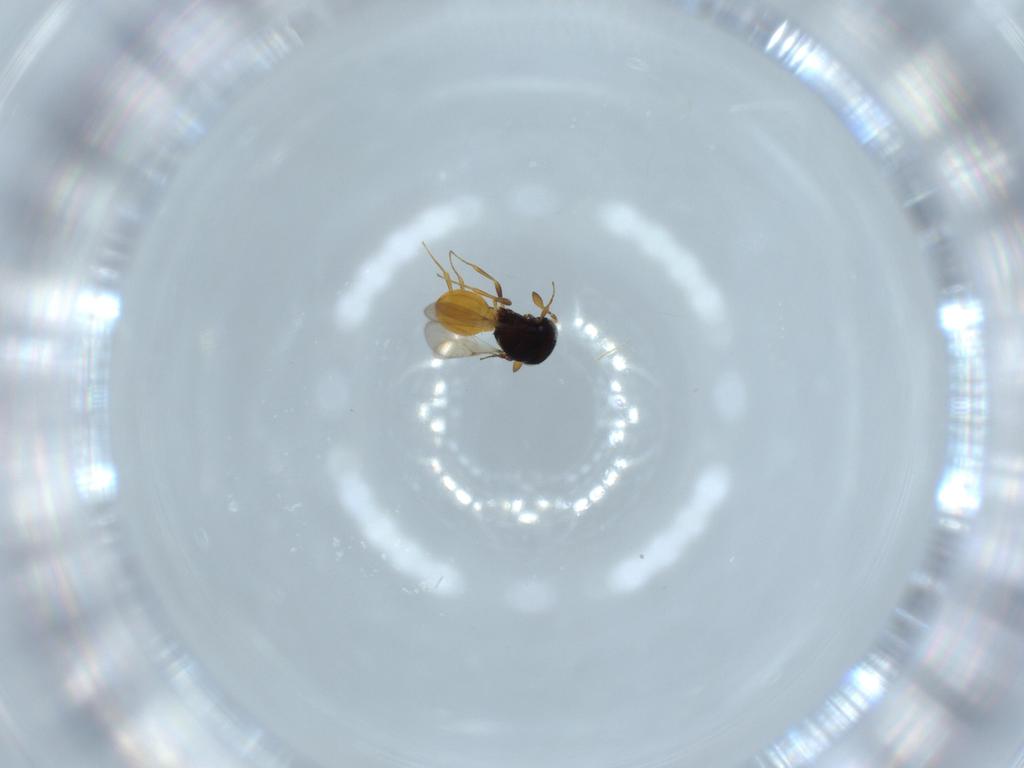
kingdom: Animalia
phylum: Arthropoda
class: Insecta
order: Hymenoptera
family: Scelionidae
